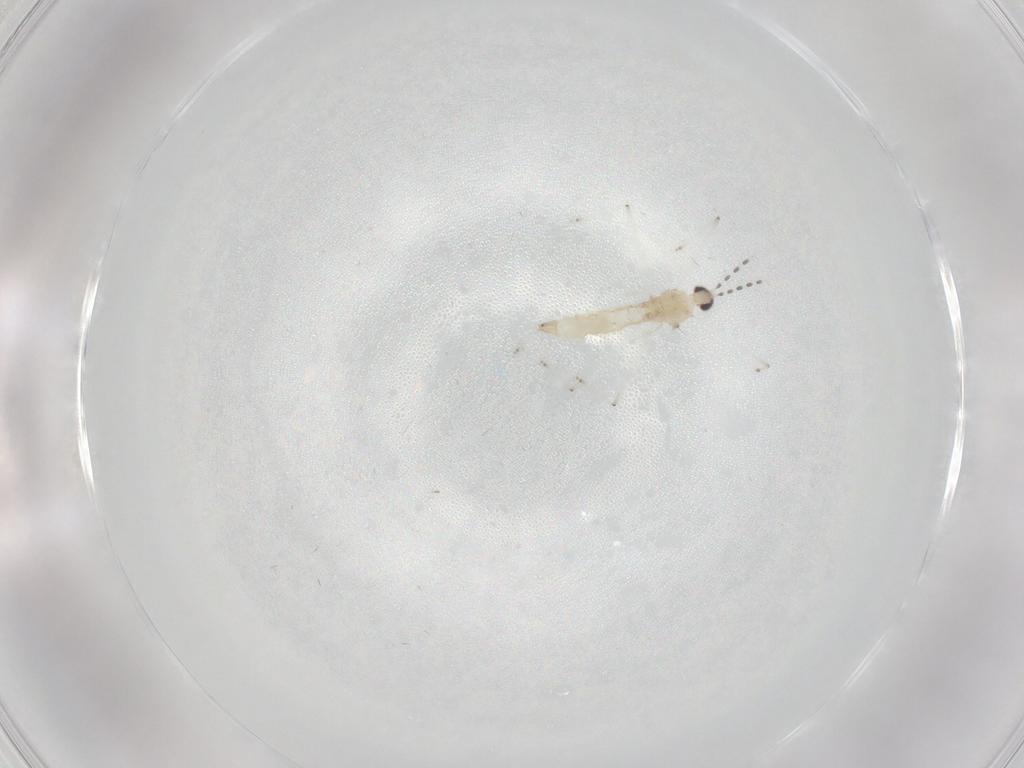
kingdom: Animalia
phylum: Arthropoda
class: Insecta
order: Diptera
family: Cecidomyiidae
